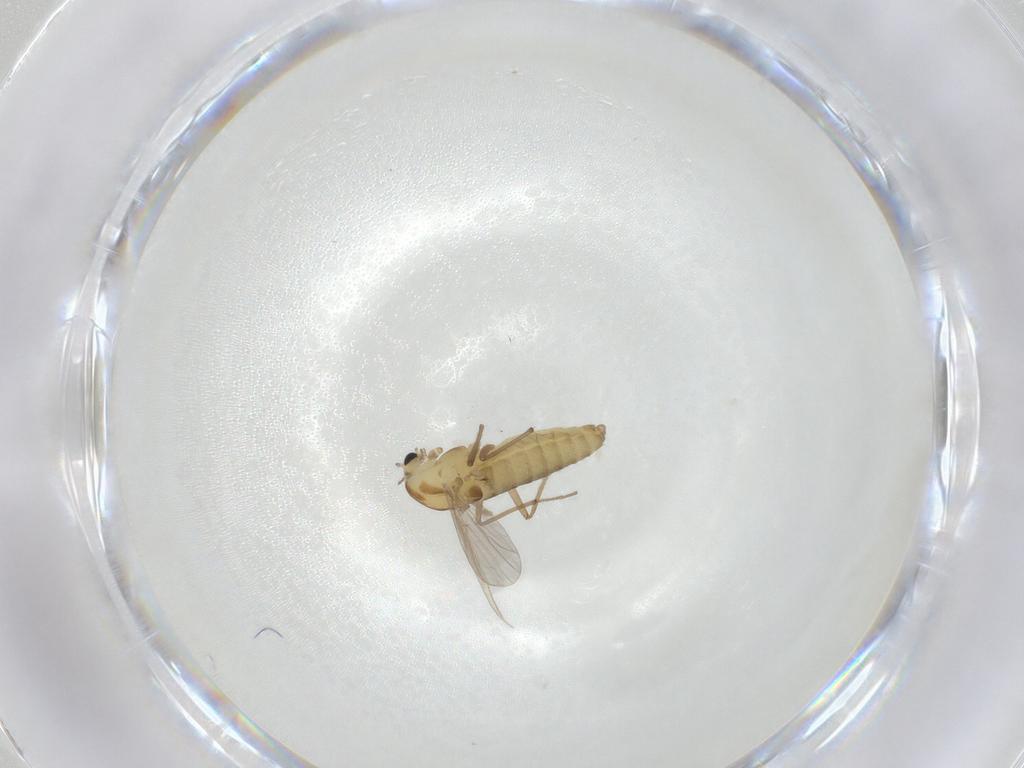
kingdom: Animalia
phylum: Arthropoda
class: Insecta
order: Diptera
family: Chironomidae
